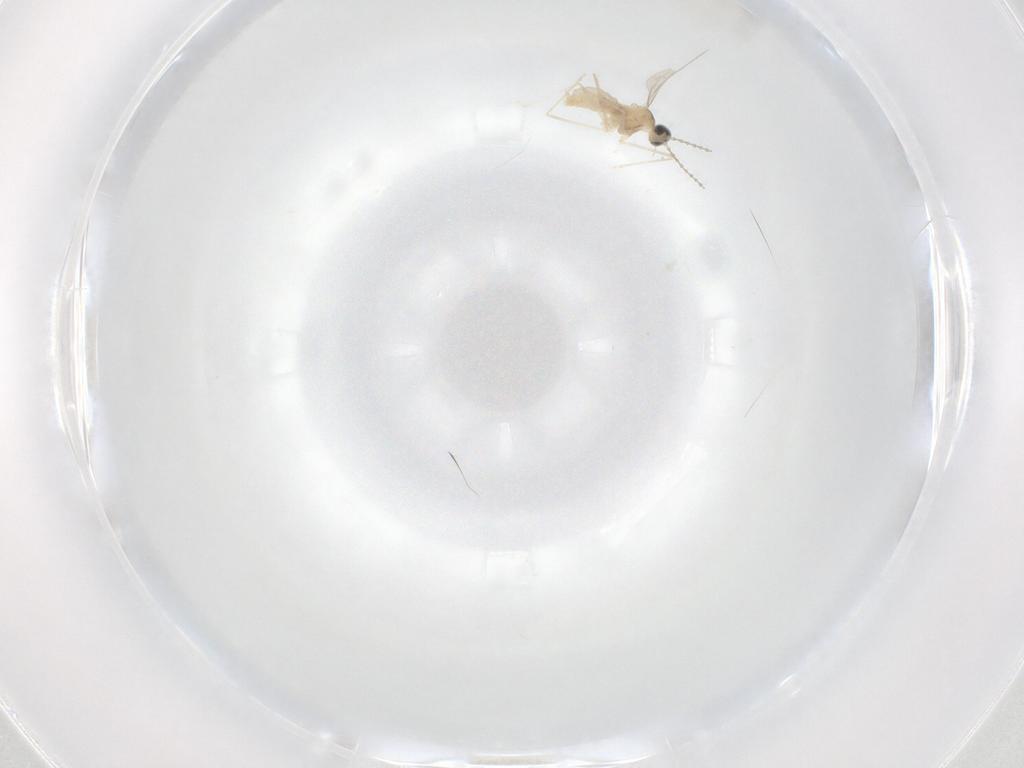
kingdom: Animalia
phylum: Arthropoda
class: Insecta
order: Diptera
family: Cecidomyiidae
